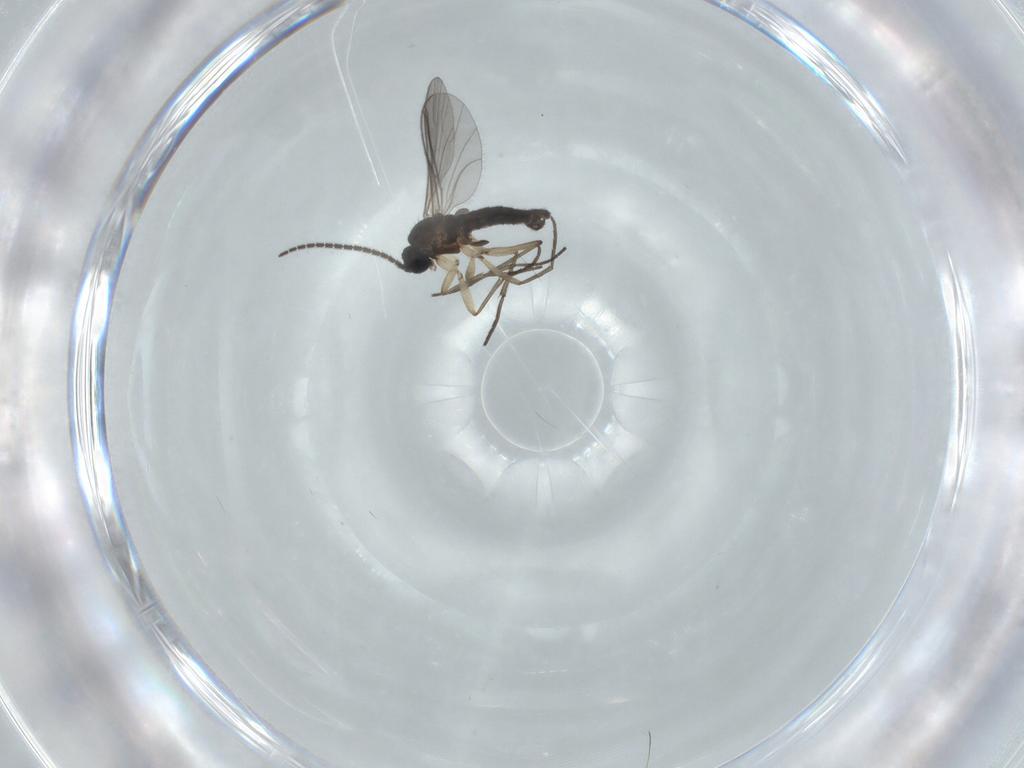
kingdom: Animalia
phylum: Arthropoda
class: Insecta
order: Diptera
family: Sciaridae
